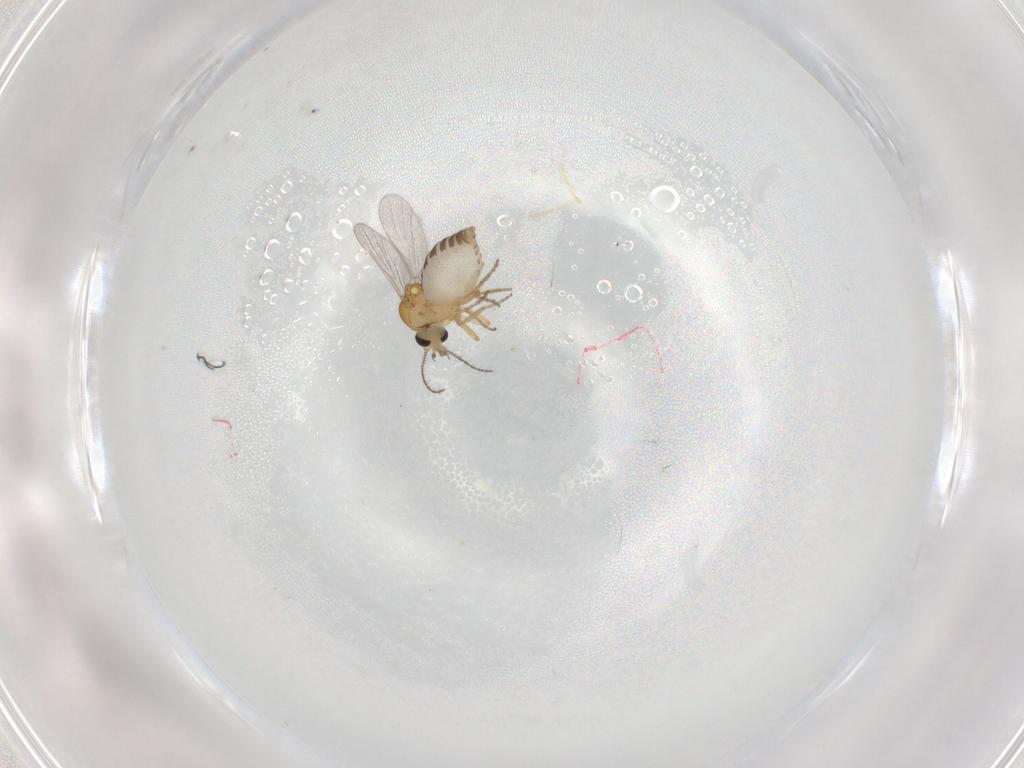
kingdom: Animalia
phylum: Arthropoda
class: Insecta
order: Diptera
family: Ceratopogonidae
